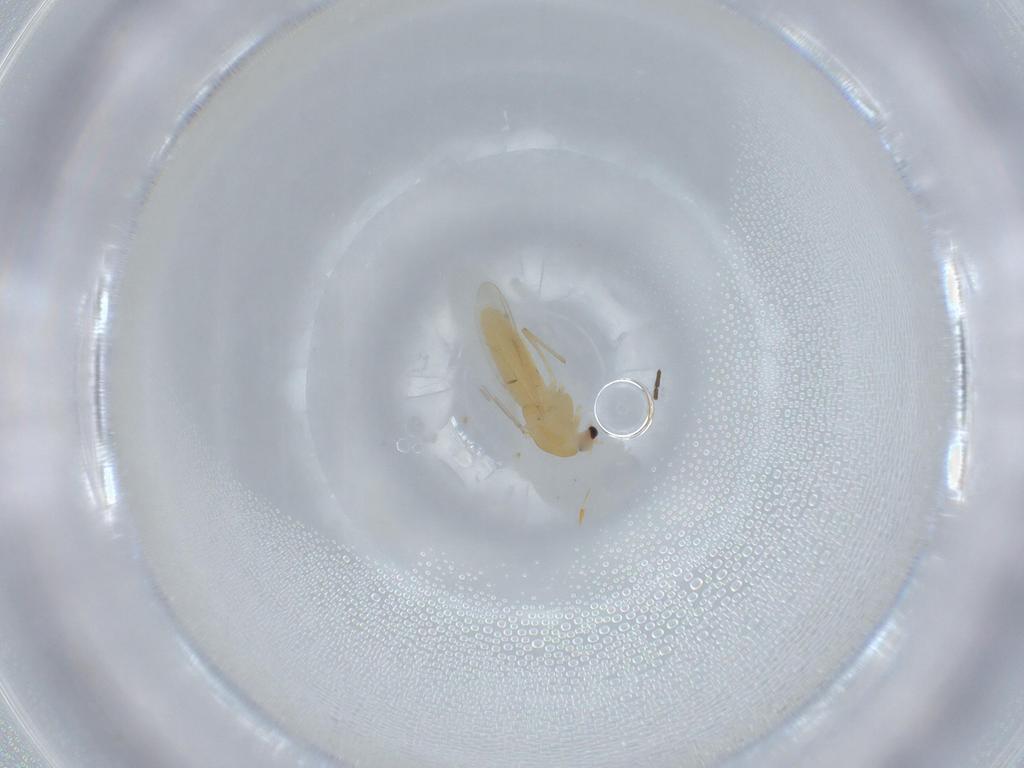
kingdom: Animalia
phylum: Arthropoda
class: Insecta
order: Diptera
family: Chironomidae
